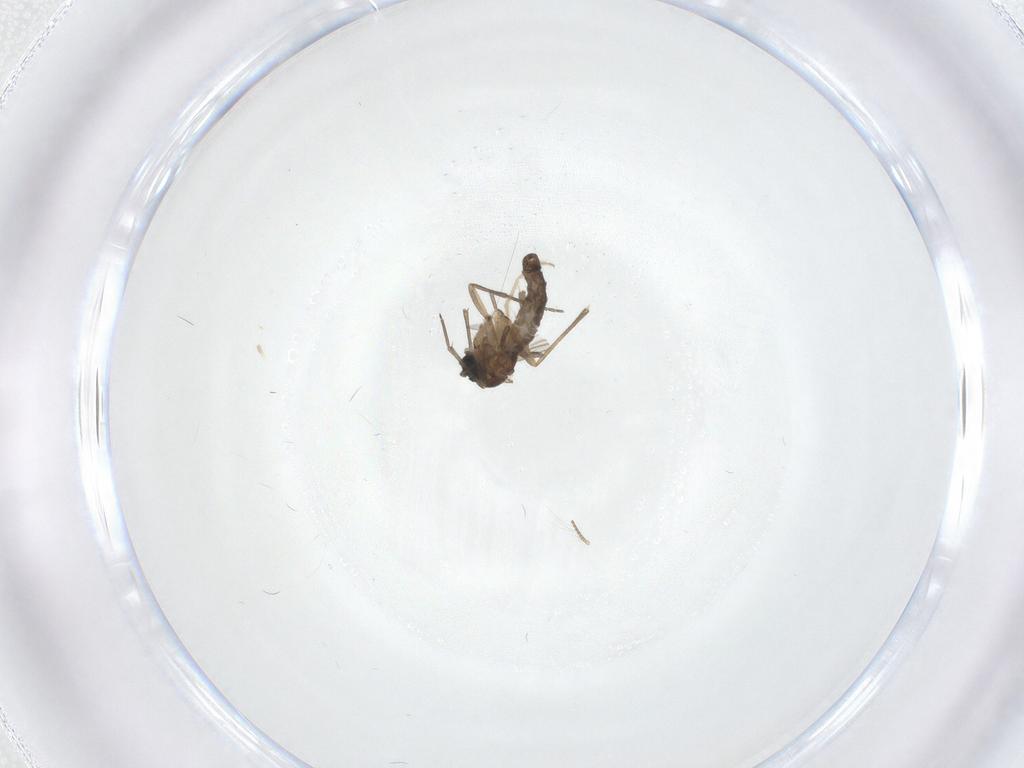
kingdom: Animalia
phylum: Arthropoda
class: Insecta
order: Diptera
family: Sciaridae
